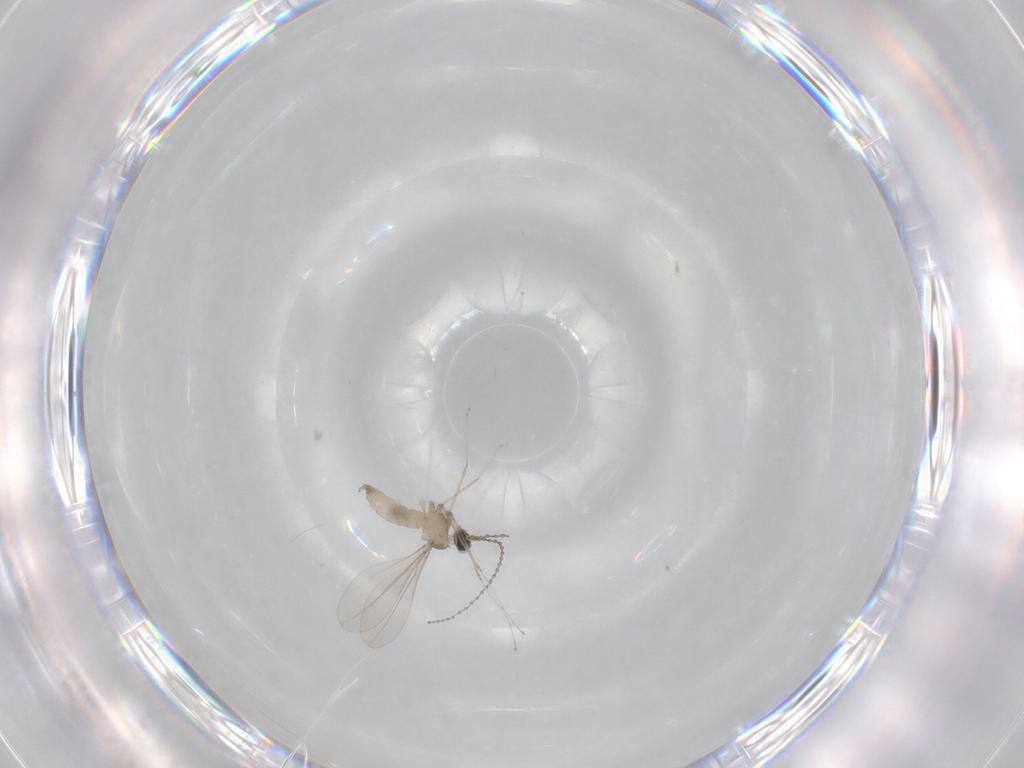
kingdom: Animalia
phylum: Arthropoda
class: Insecta
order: Diptera
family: Cecidomyiidae
